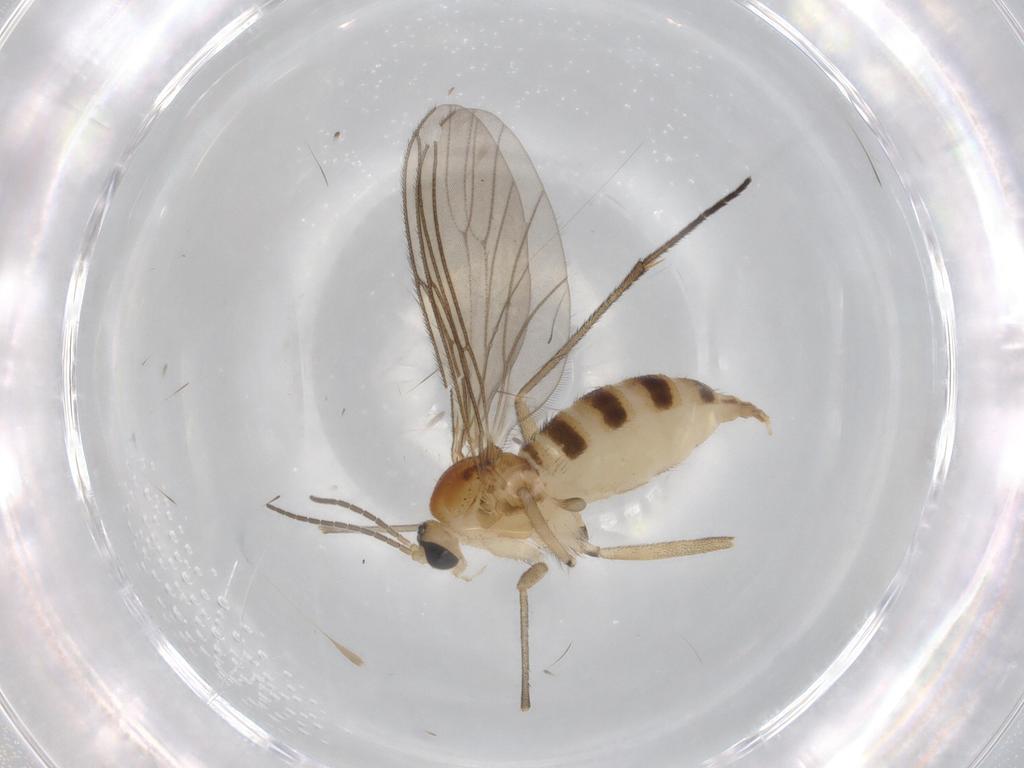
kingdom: Animalia
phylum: Arthropoda
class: Insecta
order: Diptera
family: Sciaridae
